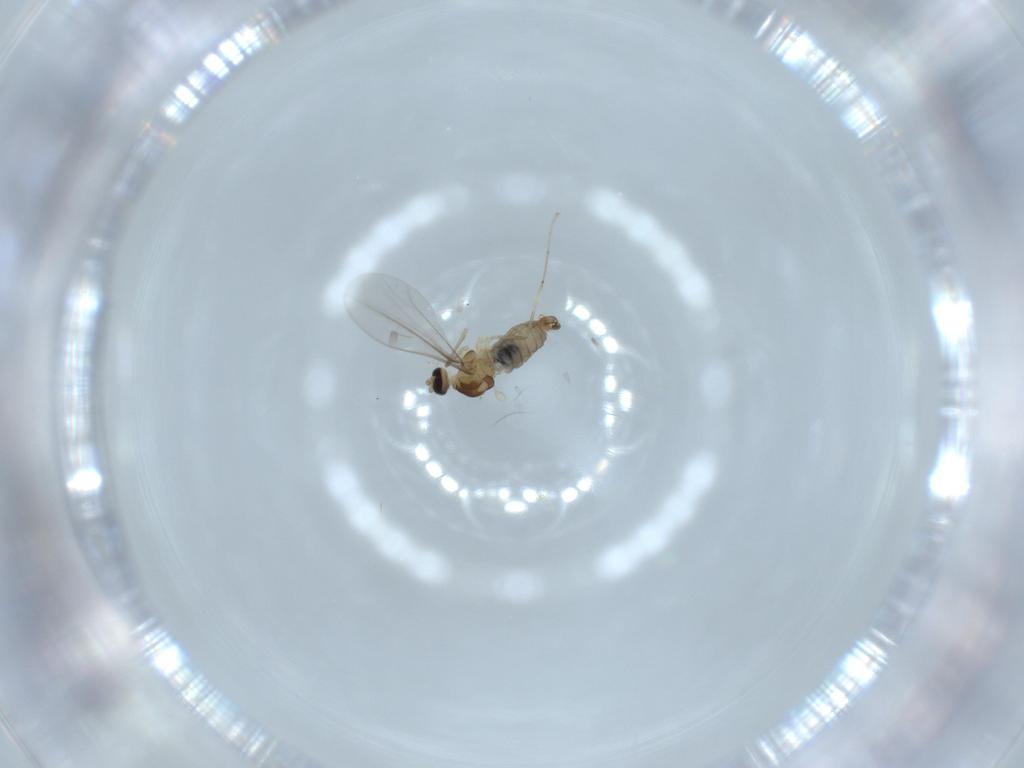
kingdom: Animalia
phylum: Arthropoda
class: Insecta
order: Diptera
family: Cecidomyiidae
